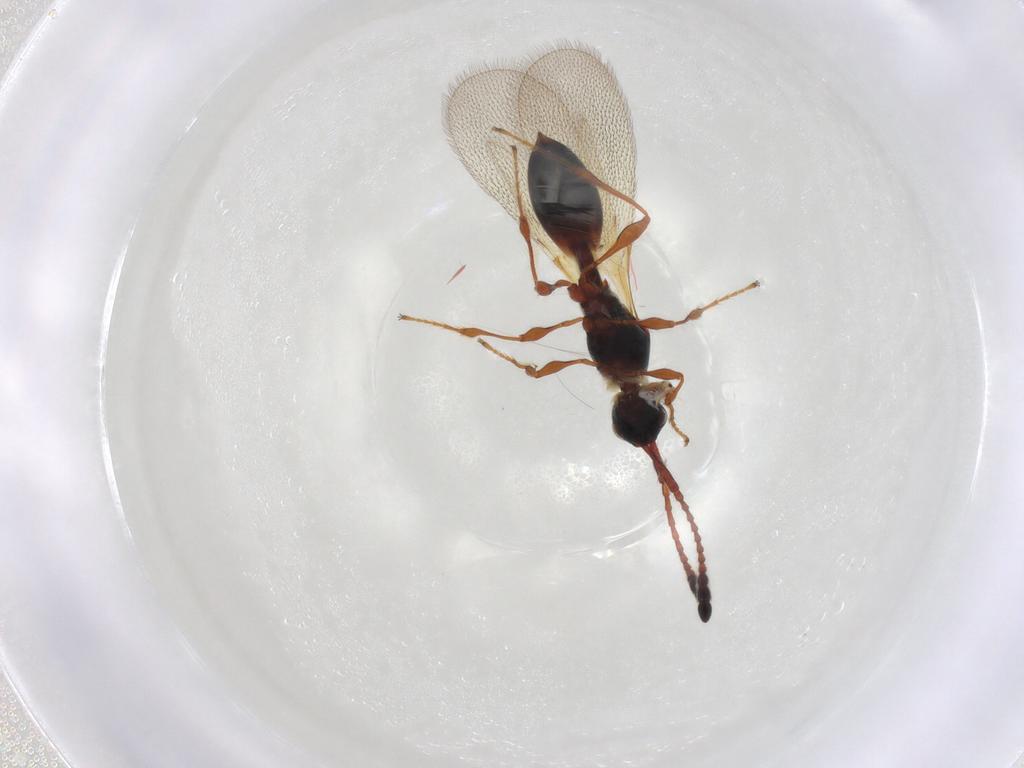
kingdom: Animalia
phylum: Arthropoda
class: Insecta
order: Hymenoptera
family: Diapriidae
